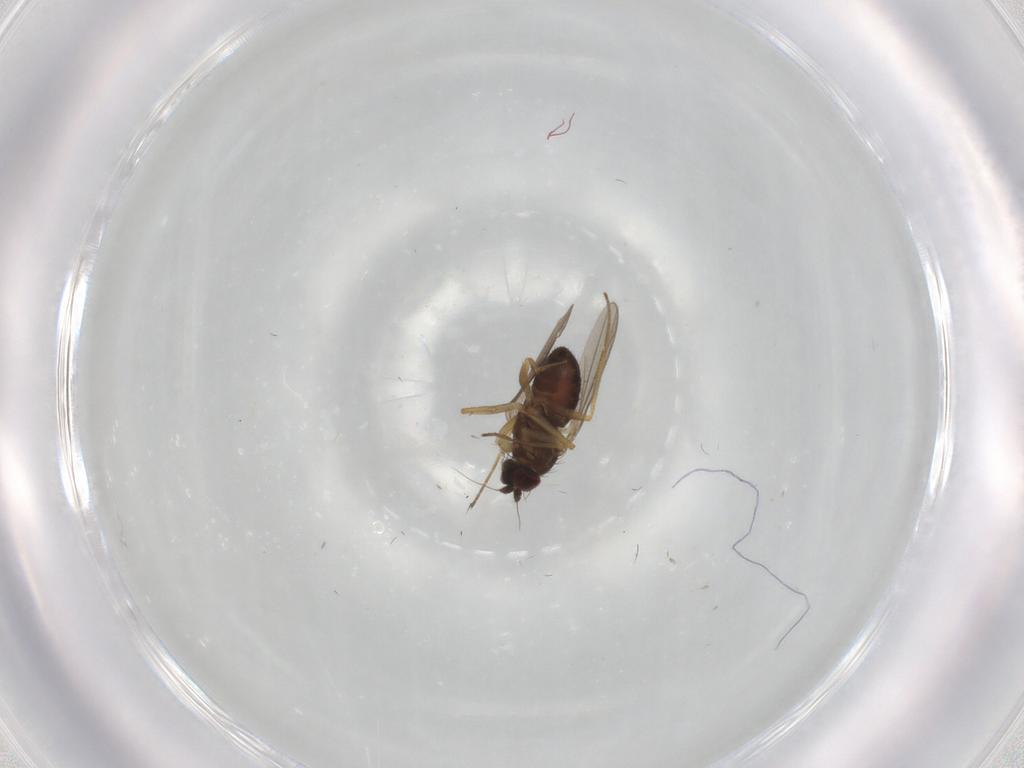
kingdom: Animalia
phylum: Arthropoda
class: Insecta
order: Diptera
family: Dolichopodidae
